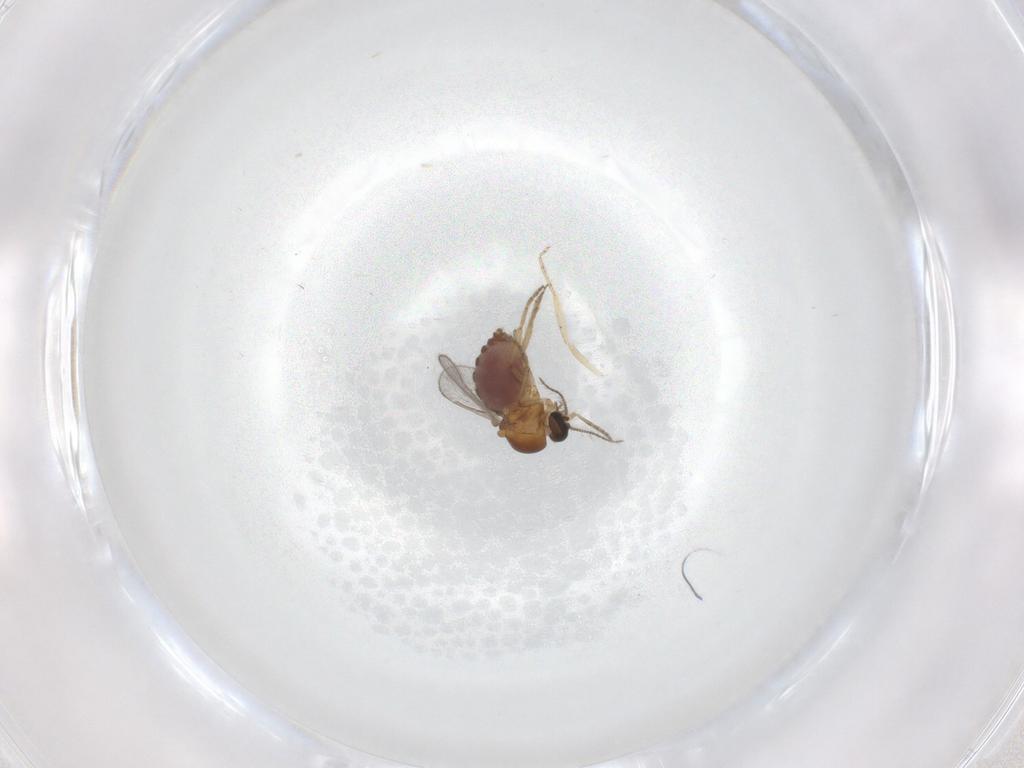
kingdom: Animalia
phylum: Arthropoda
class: Insecta
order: Diptera
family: Ceratopogonidae
